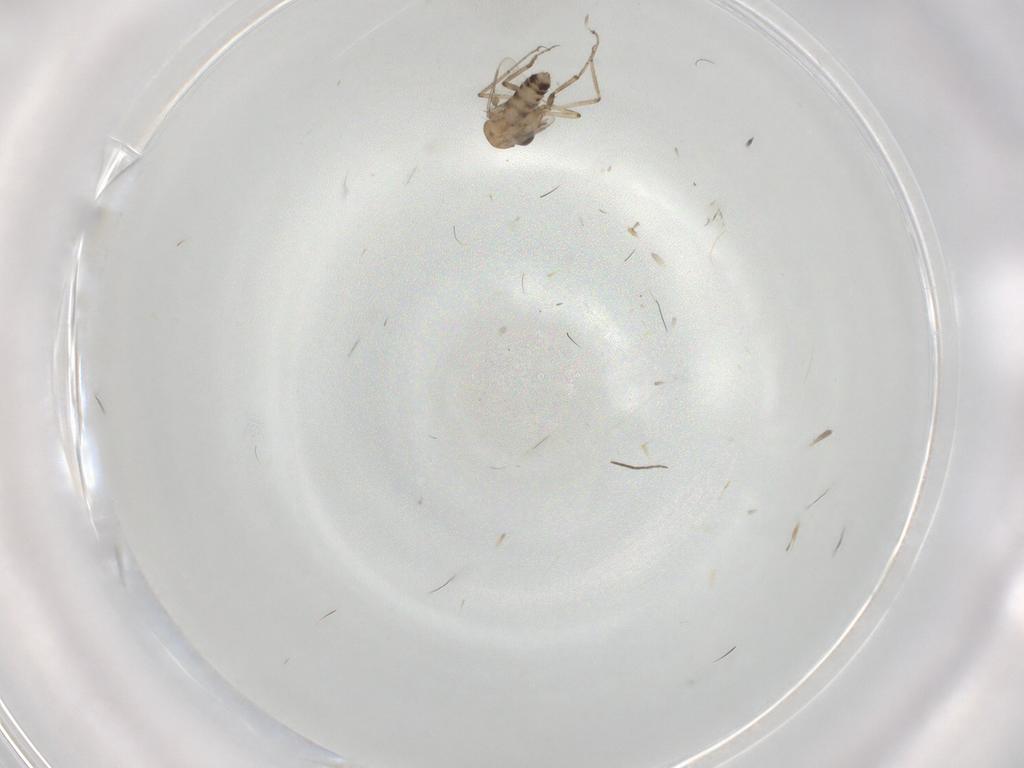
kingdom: Animalia
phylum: Arthropoda
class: Insecta
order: Diptera
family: Ceratopogonidae
